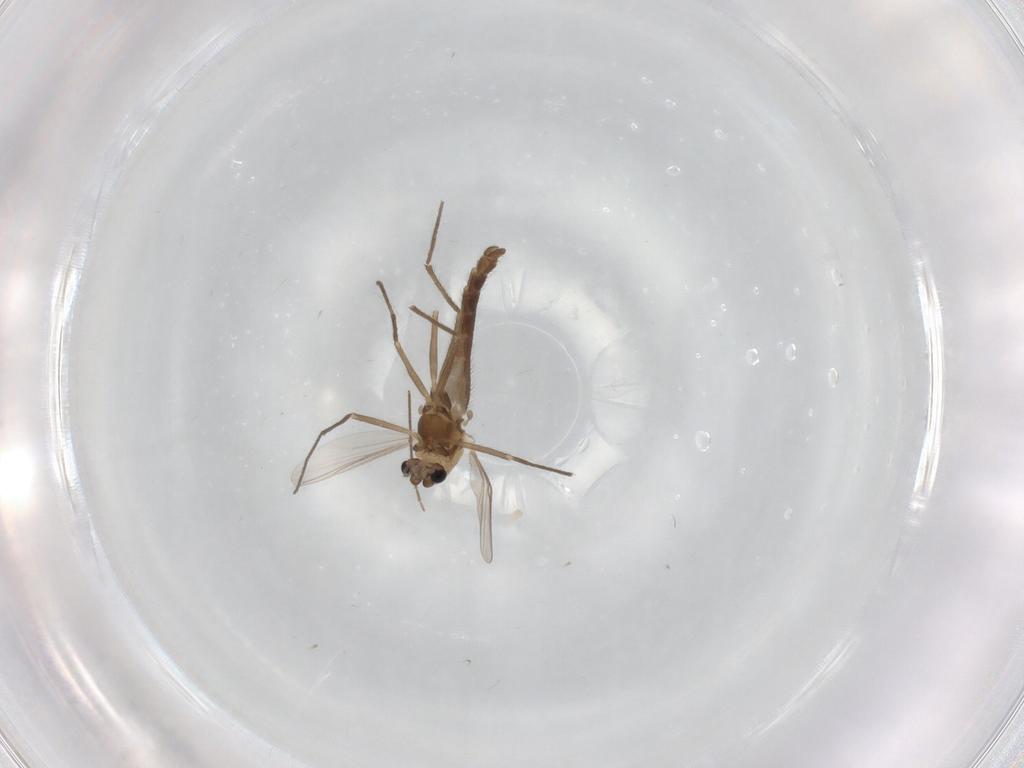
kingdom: Animalia
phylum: Arthropoda
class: Insecta
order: Diptera
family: Chironomidae
